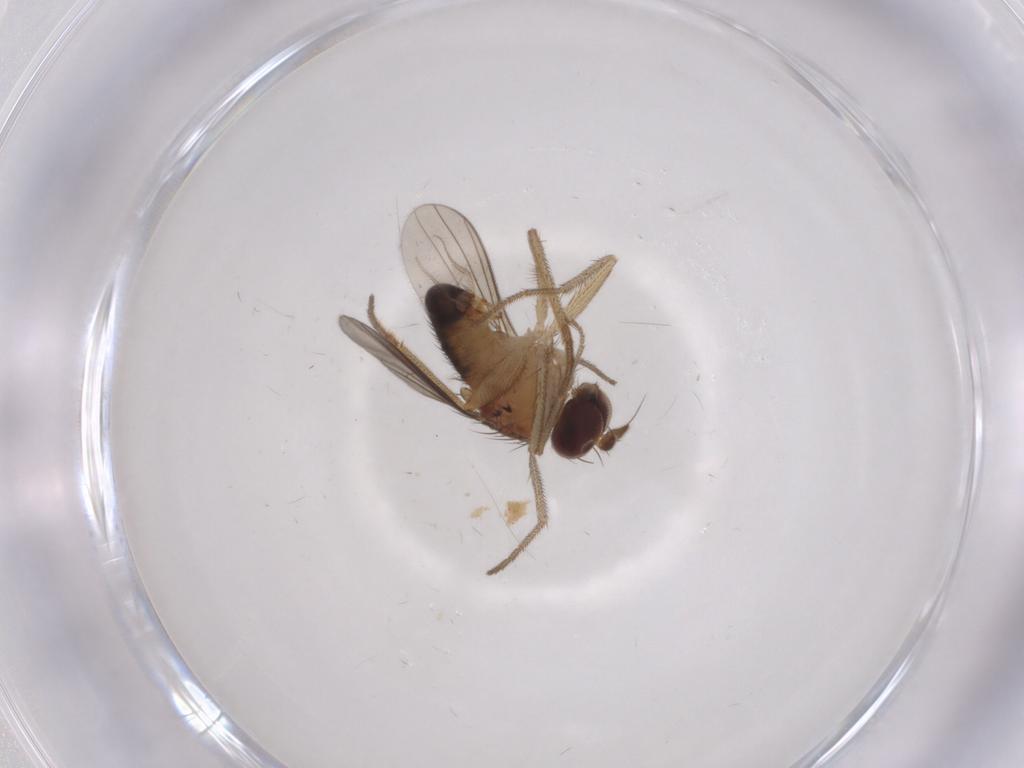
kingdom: Animalia
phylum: Arthropoda
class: Insecta
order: Diptera
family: Dolichopodidae
